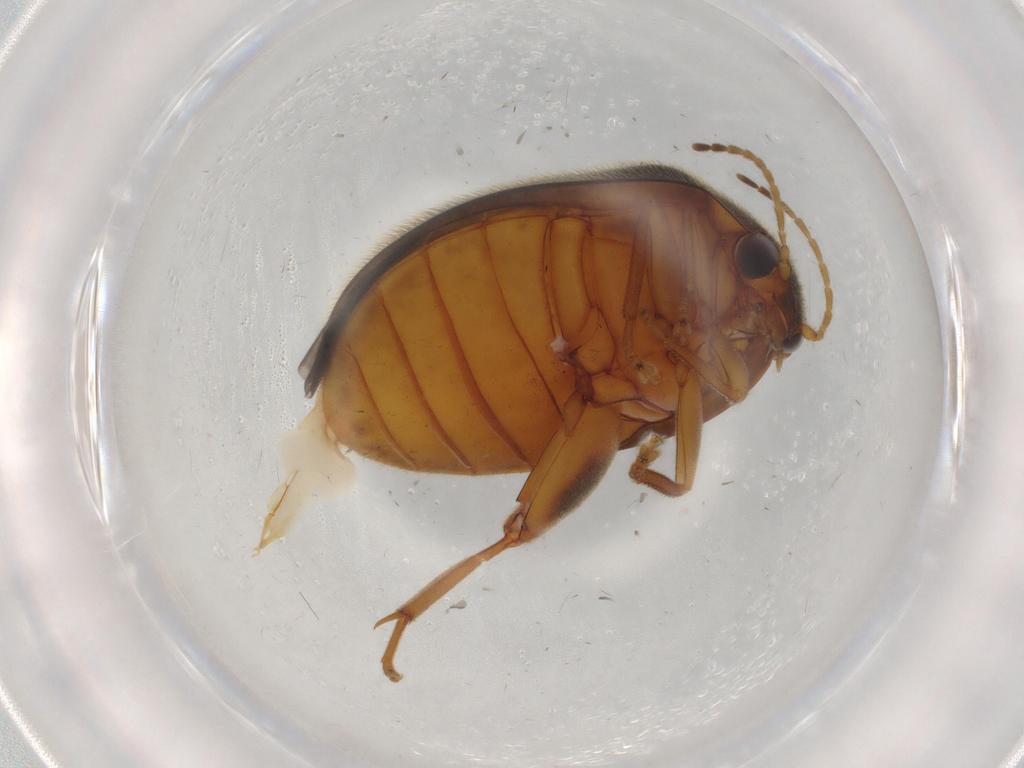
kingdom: Animalia
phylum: Arthropoda
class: Insecta
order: Coleoptera
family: Scirtidae
